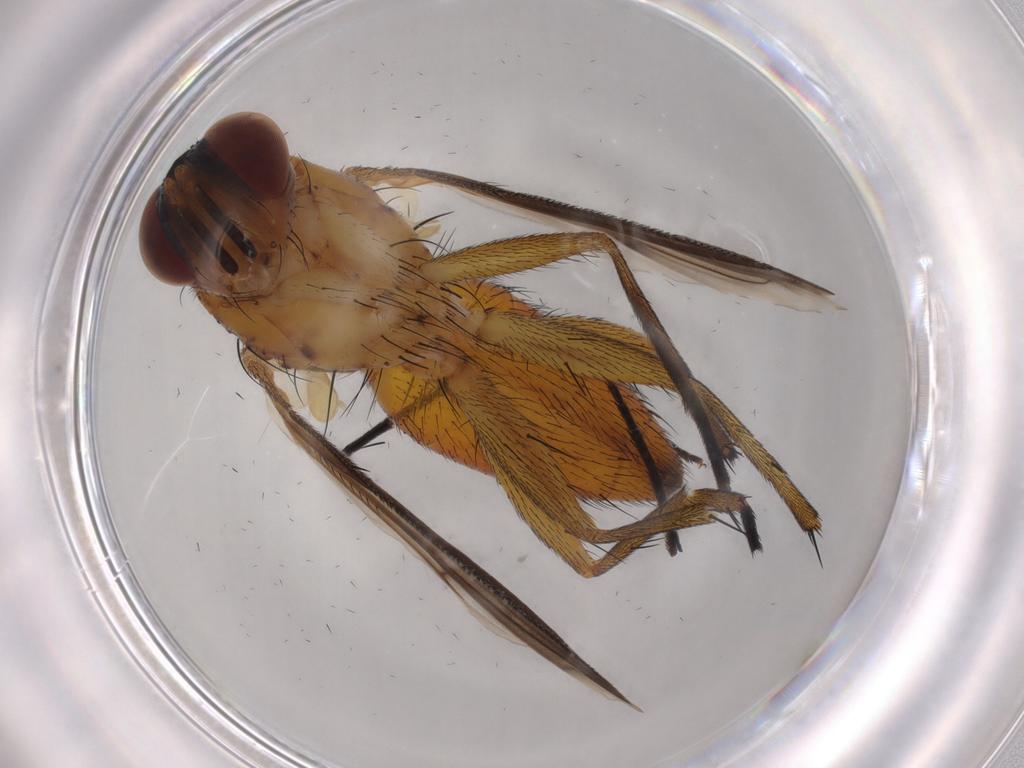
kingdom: Animalia
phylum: Arthropoda
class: Insecta
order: Diptera
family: Tachinidae
